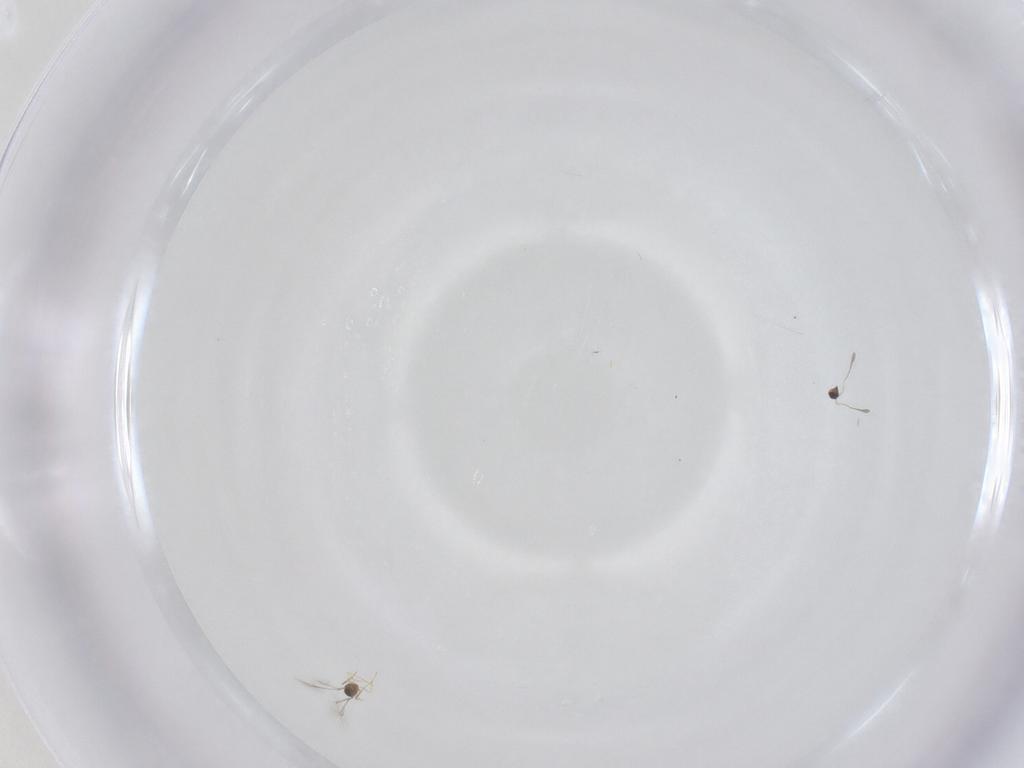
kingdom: Animalia
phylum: Arthropoda
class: Insecta
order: Hymenoptera
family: Mymaridae
